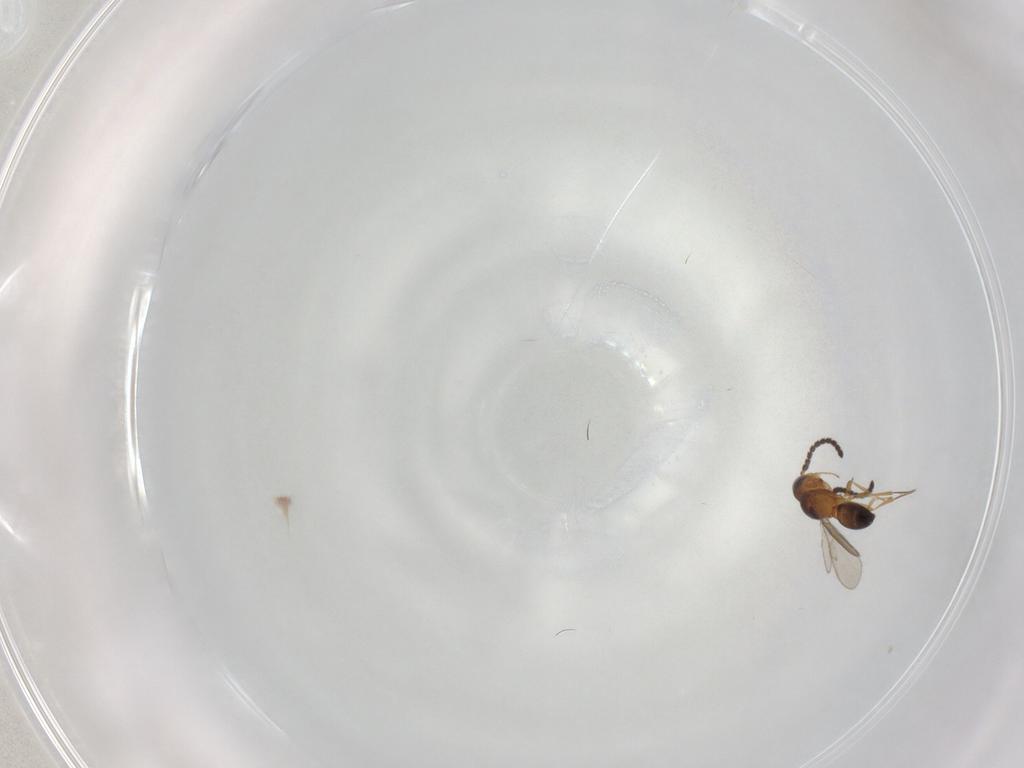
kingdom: Animalia
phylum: Arthropoda
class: Insecta
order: Hymenoptera
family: Scelionidae
